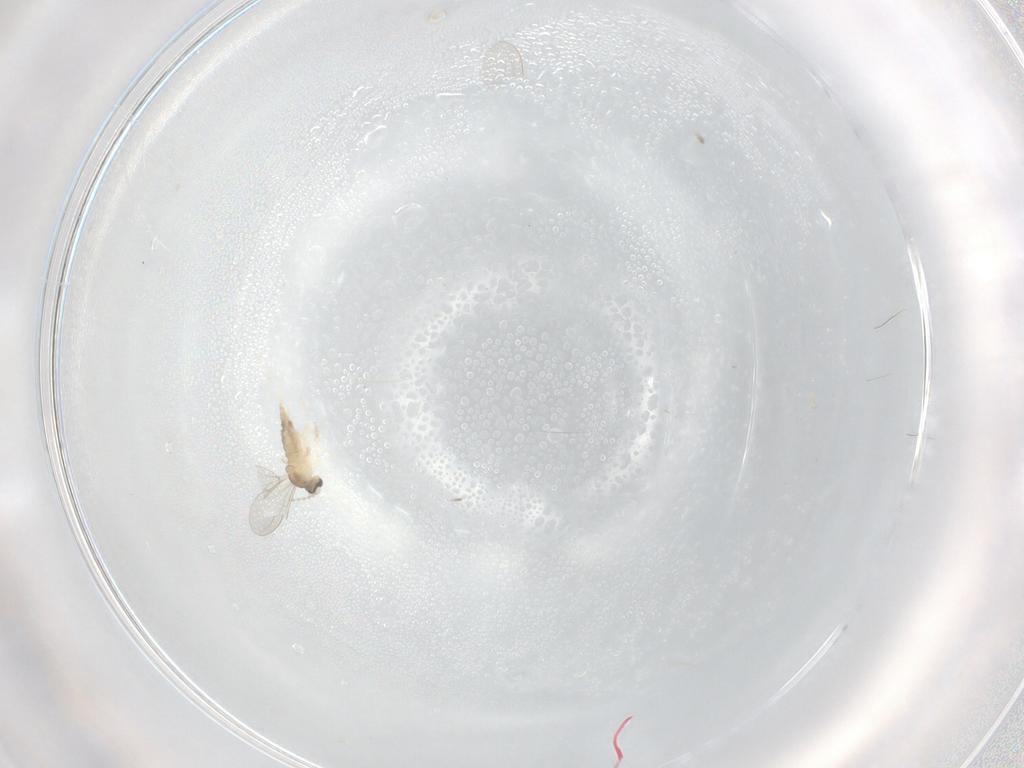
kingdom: Animalia
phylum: Arthropoda
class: Insecta
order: Diptera
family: Cecidomyiidae
